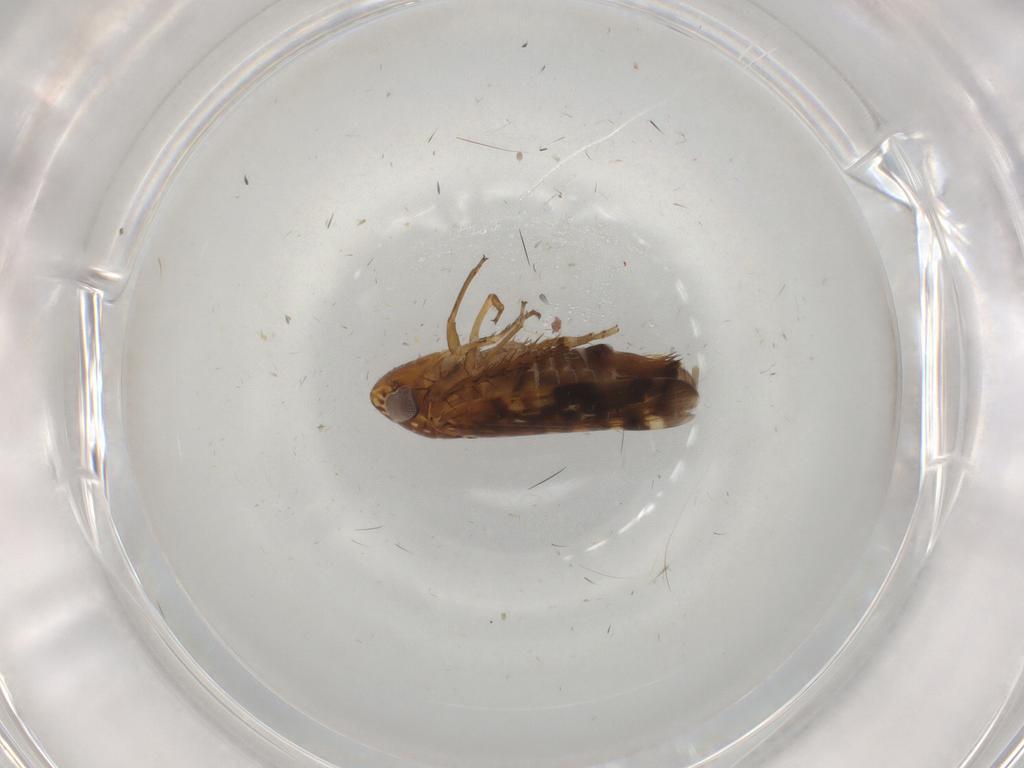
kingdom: Animalia
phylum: Arthropoda
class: Insecta
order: Hemiptera
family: Cicadellidae
